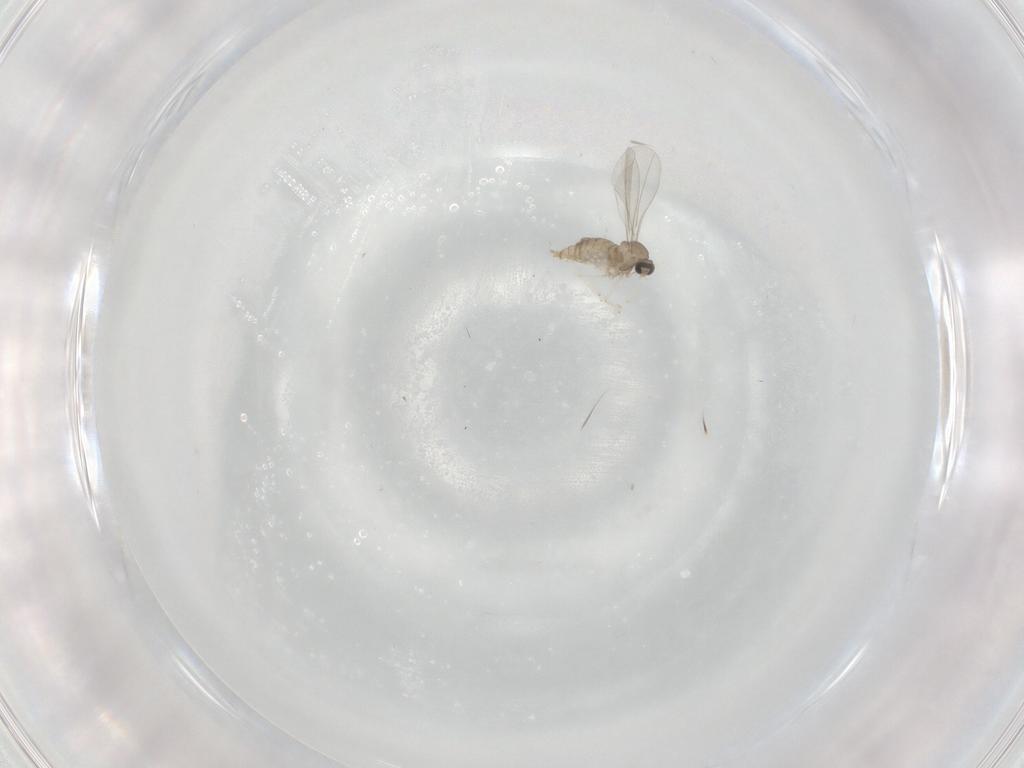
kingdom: Animalia
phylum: Arthropoda
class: Insecta
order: Diptera
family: Cecidomyiidae
